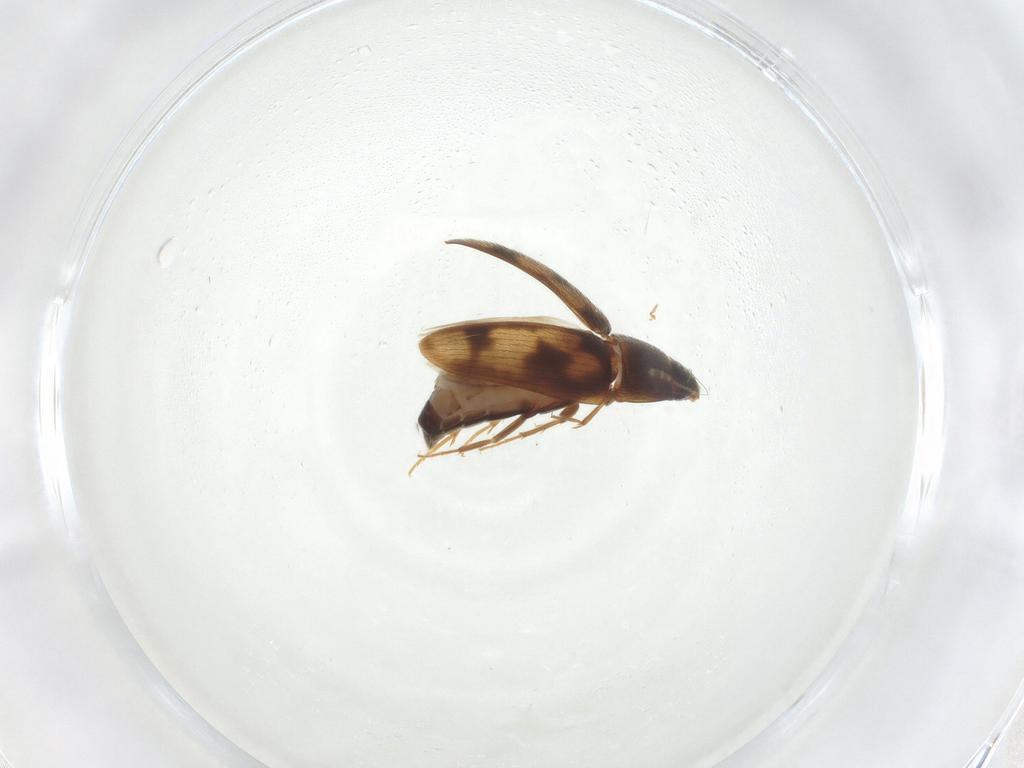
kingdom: Animalia
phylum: Arthropoda
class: Insecta
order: Coleoptera
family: Mycetophagidae
